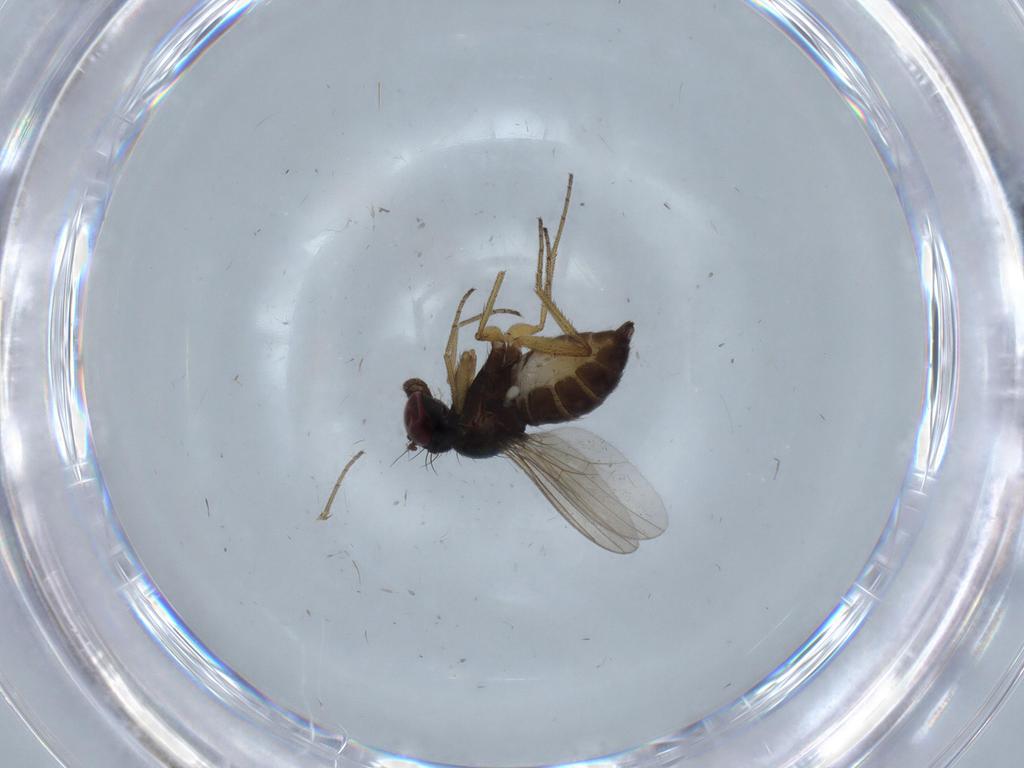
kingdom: Animalia
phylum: Arthropoda
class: Insecta
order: Diptera
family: Dolichopodidae
